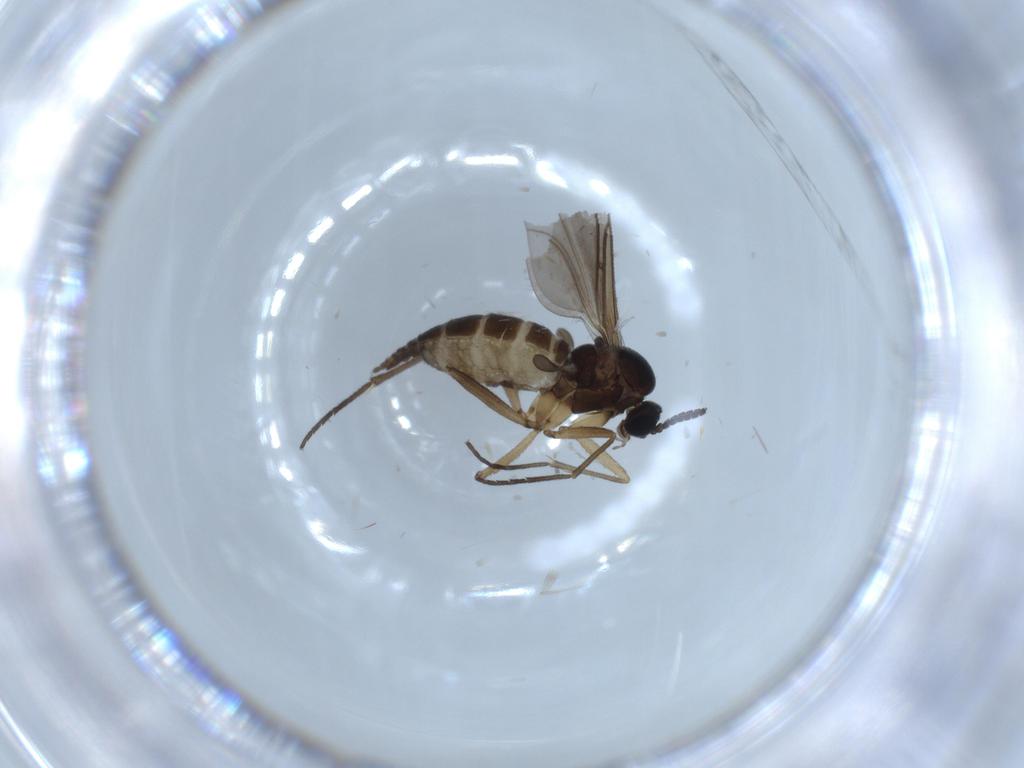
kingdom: Animalia
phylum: Arthropoda
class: Insecta
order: Diptera
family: Sciaridae
